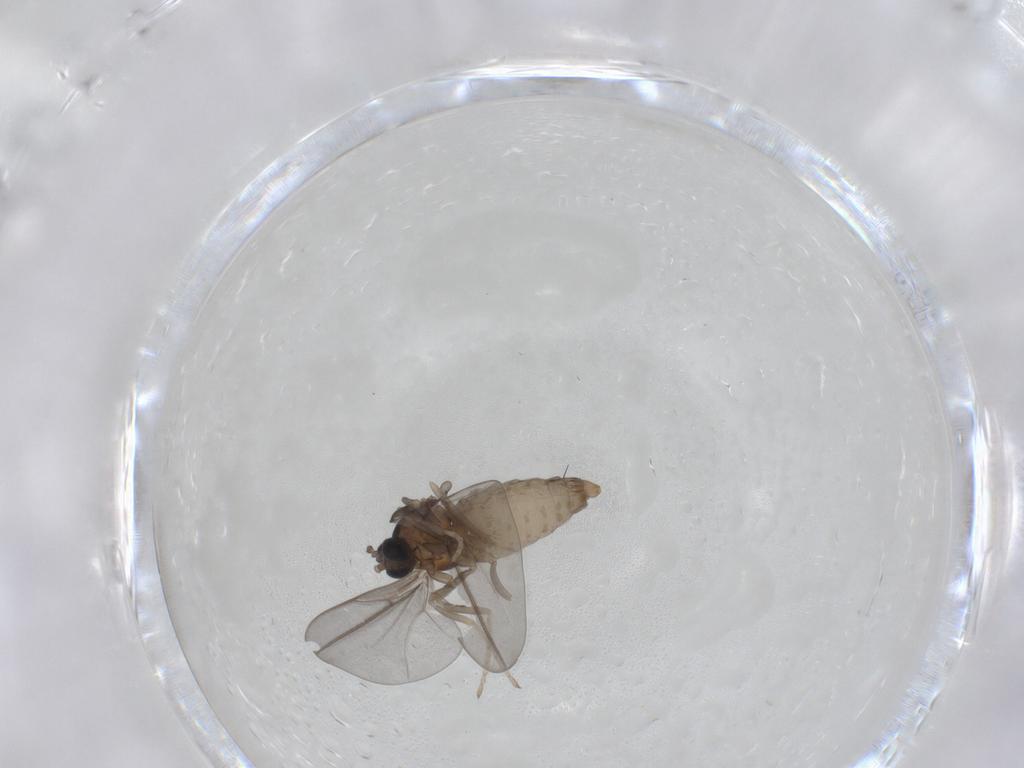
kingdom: Animalia
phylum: Arthropoda
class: Insecta
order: Diptera
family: Cecidomyiidae
